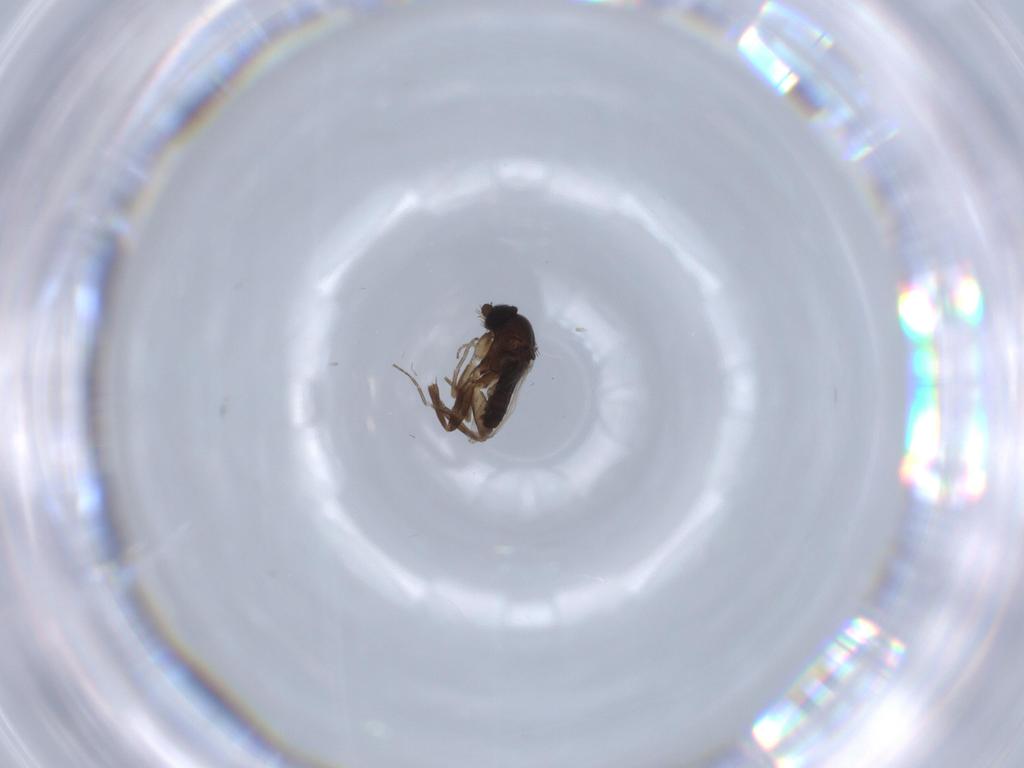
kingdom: Animalia
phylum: Arthropoda
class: Insecta
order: Diptera
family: Phoridae
